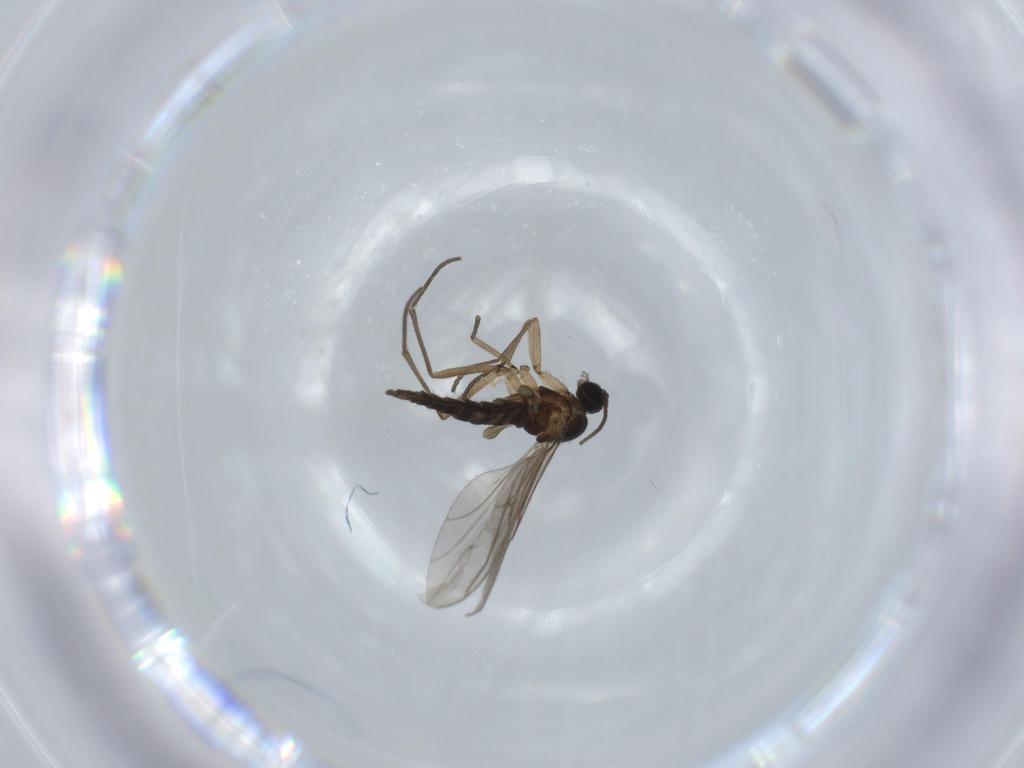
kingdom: Animalia
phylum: Arthropoda
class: Insecta
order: Diptera
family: Sciaridae
